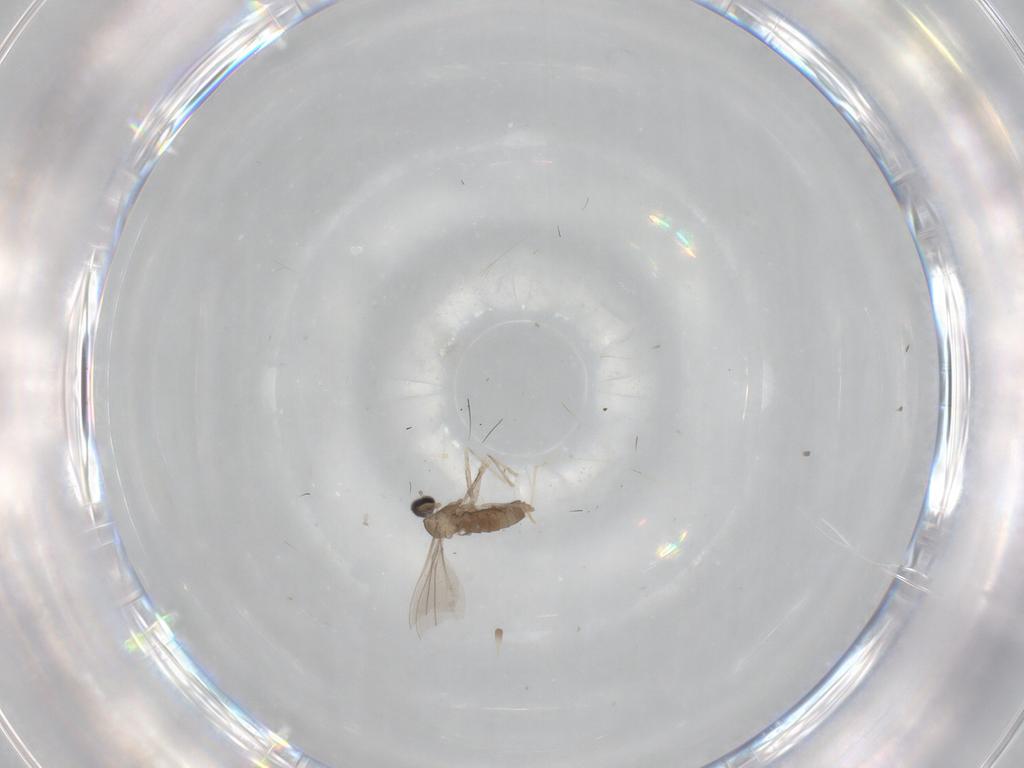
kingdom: Animalia
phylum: Arthropoda
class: Insecta
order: Diptera
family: Cecidomyiidae
